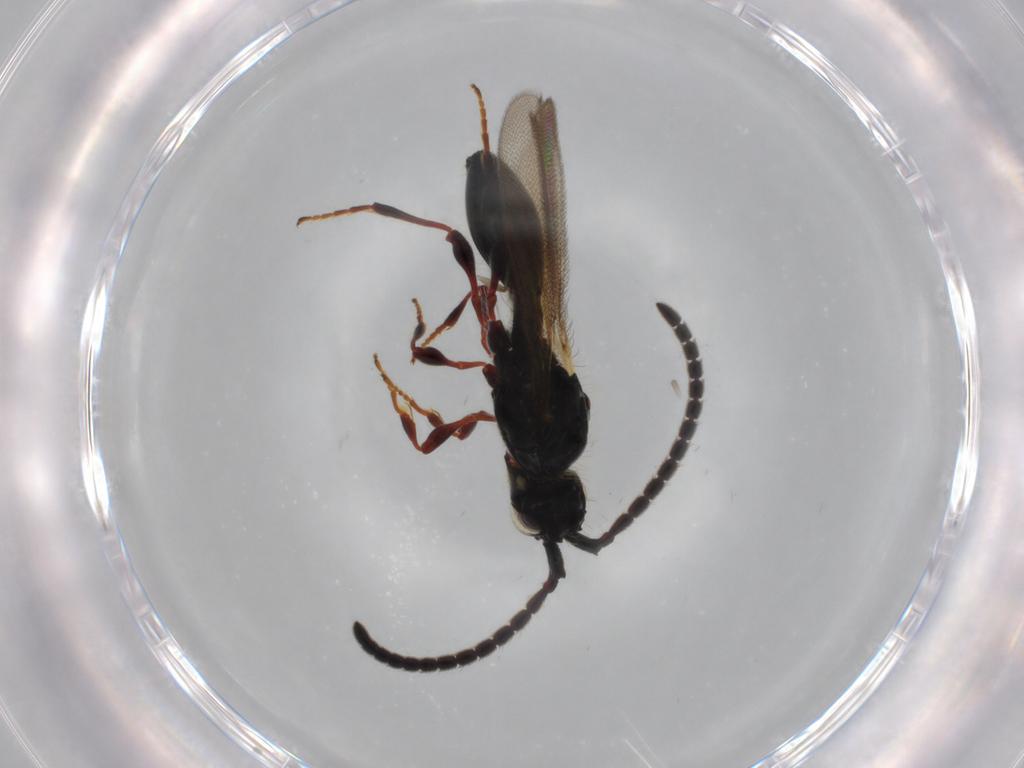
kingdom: Animalia
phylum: Arthropoda
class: Insecta
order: Hymenoptera
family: Diapriidae
